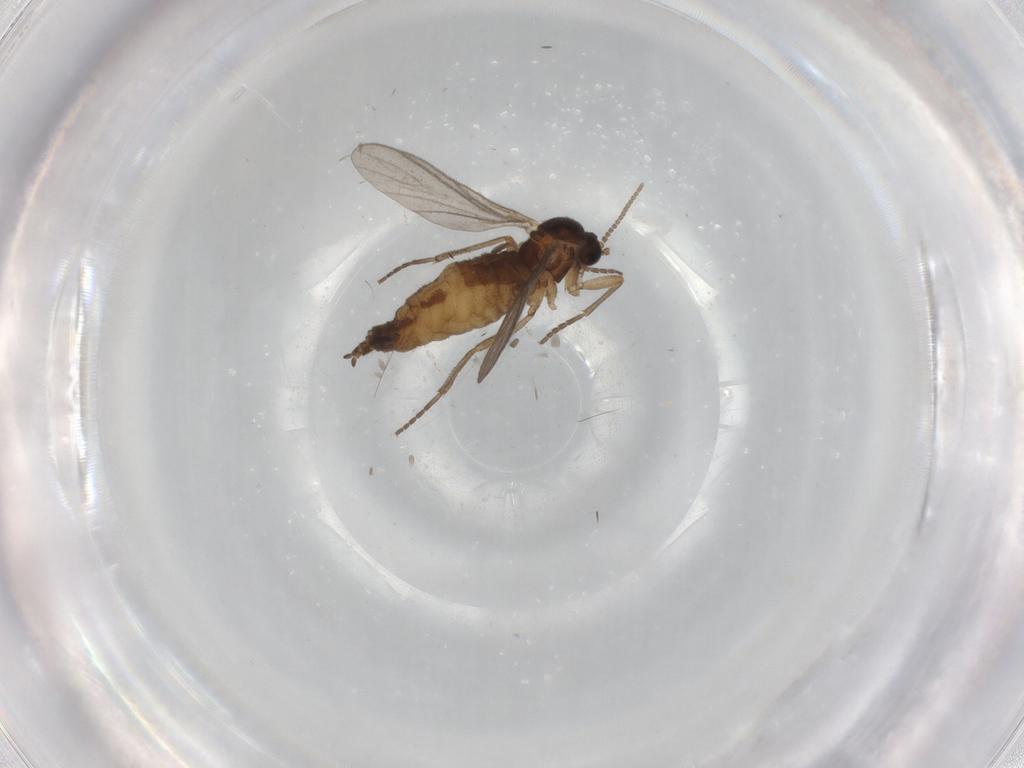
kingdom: Animalia
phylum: Arthropoda
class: Insecta
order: Diptera
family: Sciaridae
